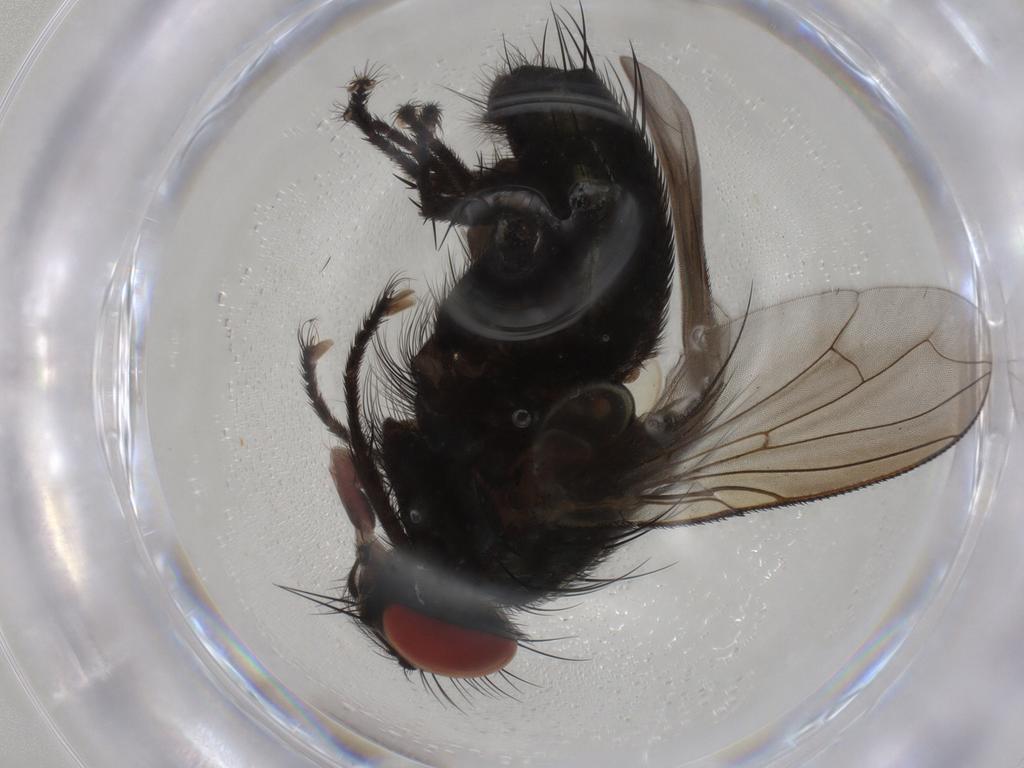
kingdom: Animalia
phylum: Arthropoda
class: Insecta
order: Diptera
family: Sarcophagidae
